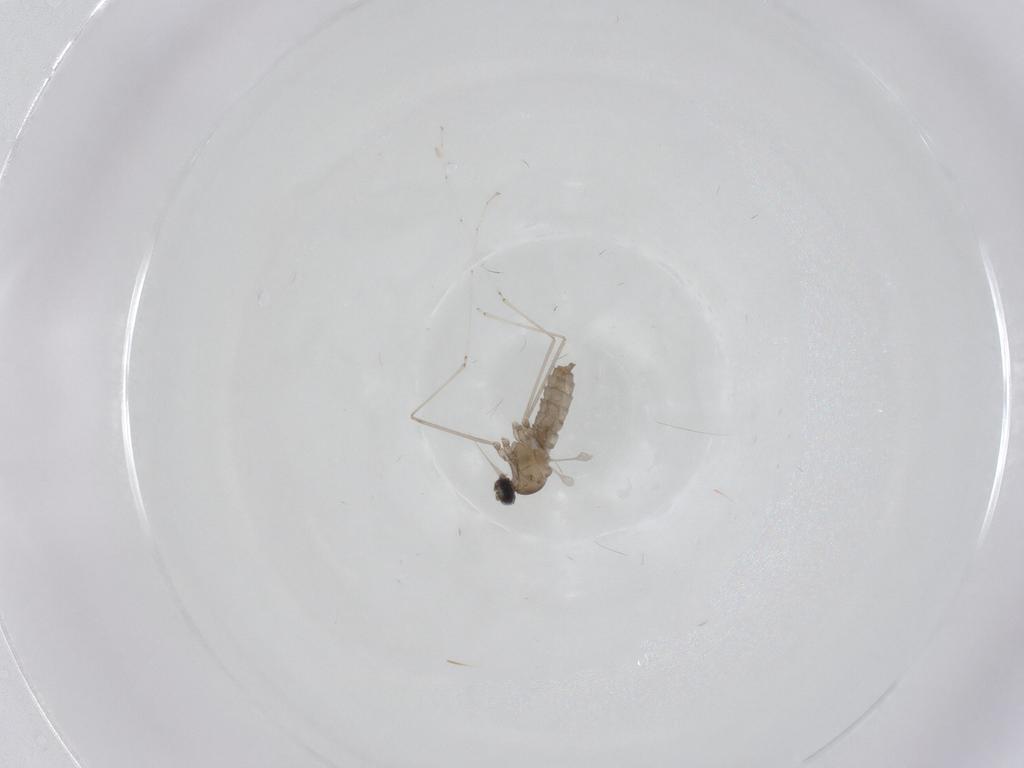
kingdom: Animalia
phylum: Arthropoda
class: Insecta
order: Diptera
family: Cecidomyiidae
